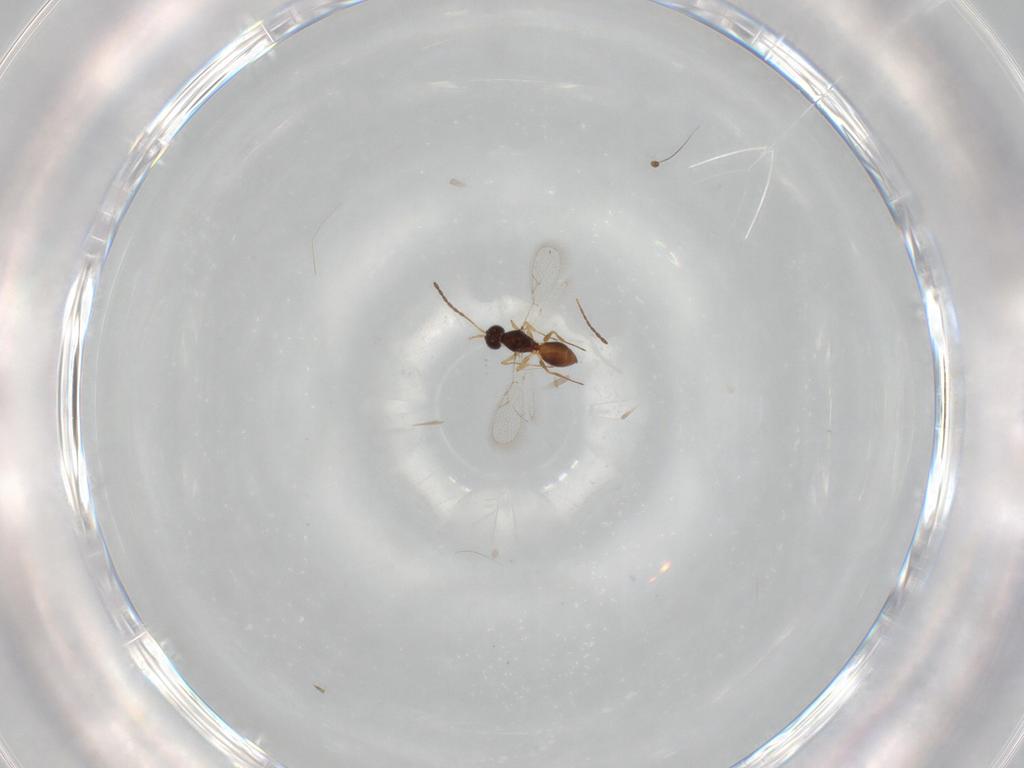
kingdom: Animalia
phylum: Arthropoda
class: Insecta
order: Hymenoptera
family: Figitidae
